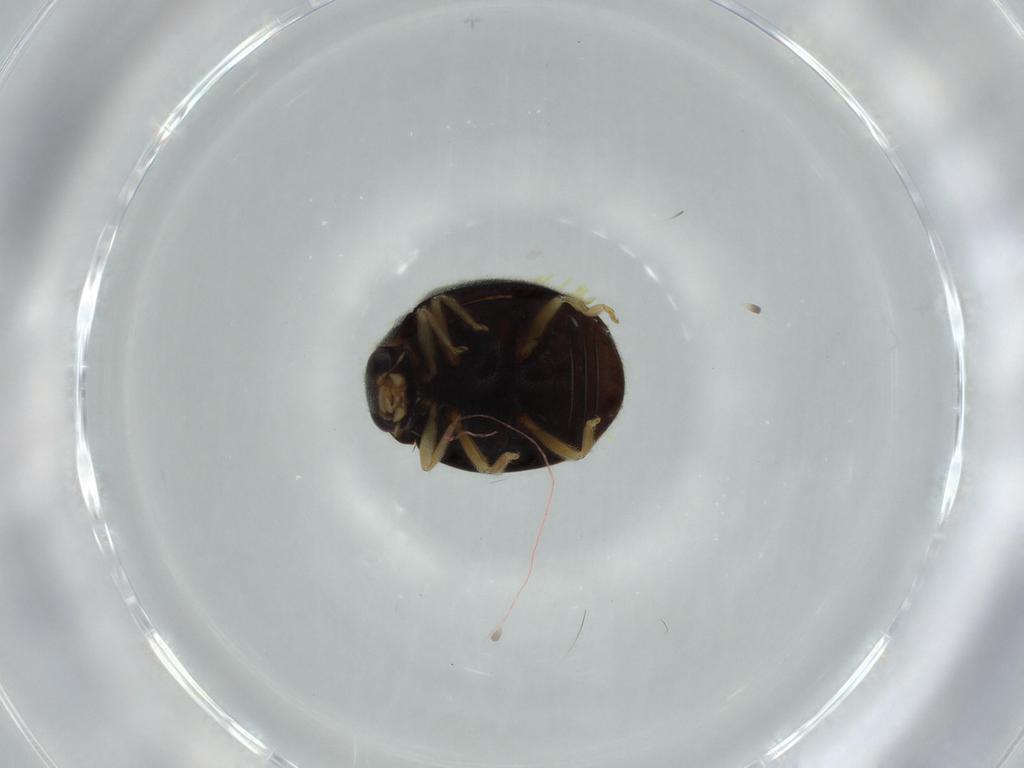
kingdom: Animalia
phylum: Arthropoda
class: Insecta
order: Coleoptera
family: Coccinellidae
